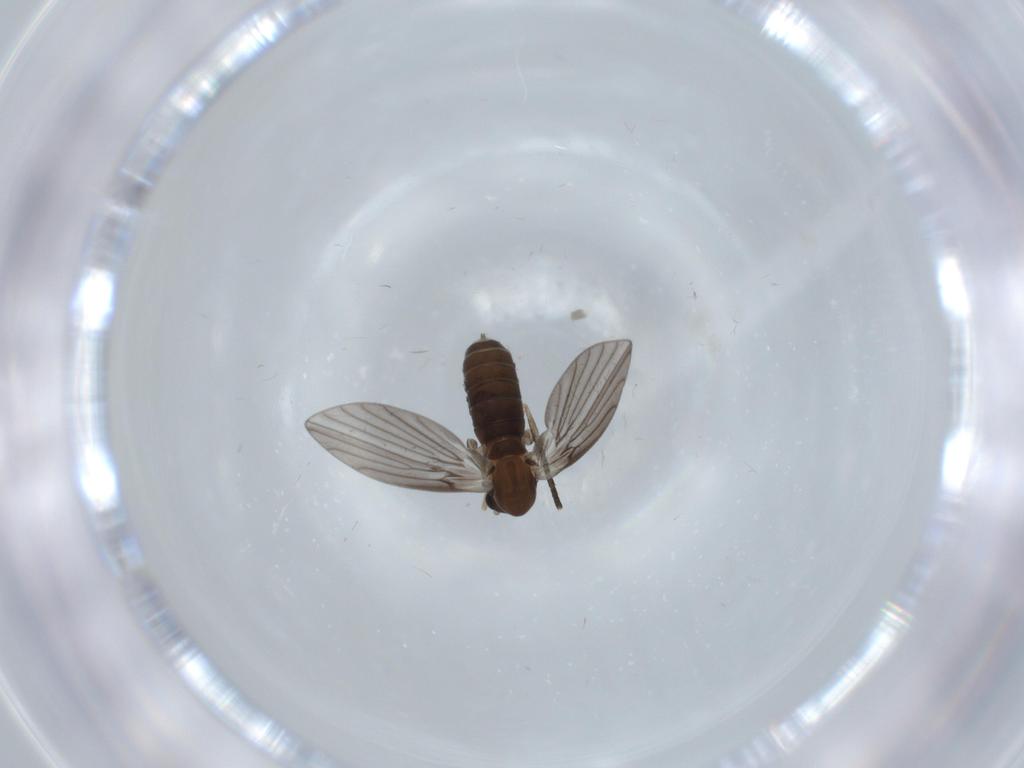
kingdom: Animalia
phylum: Arthropoda
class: Insecta
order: Diptera
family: Psychodidae
